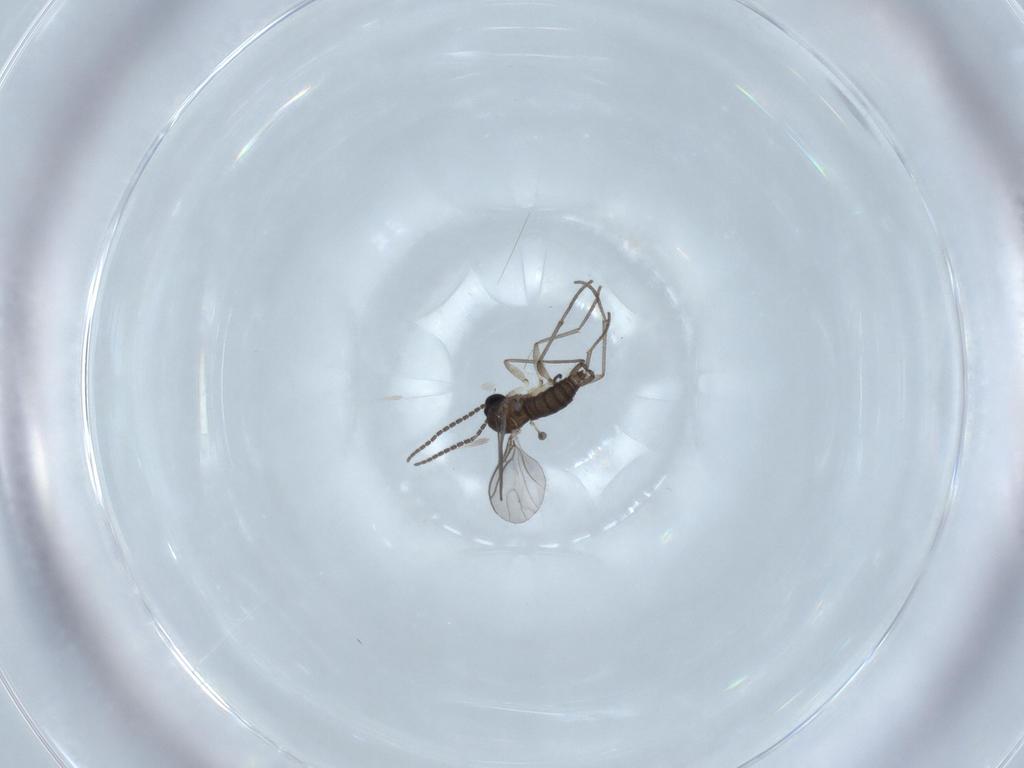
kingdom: Animalia
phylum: Arthropoda
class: Insecta
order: Diptera
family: Sciaridae
